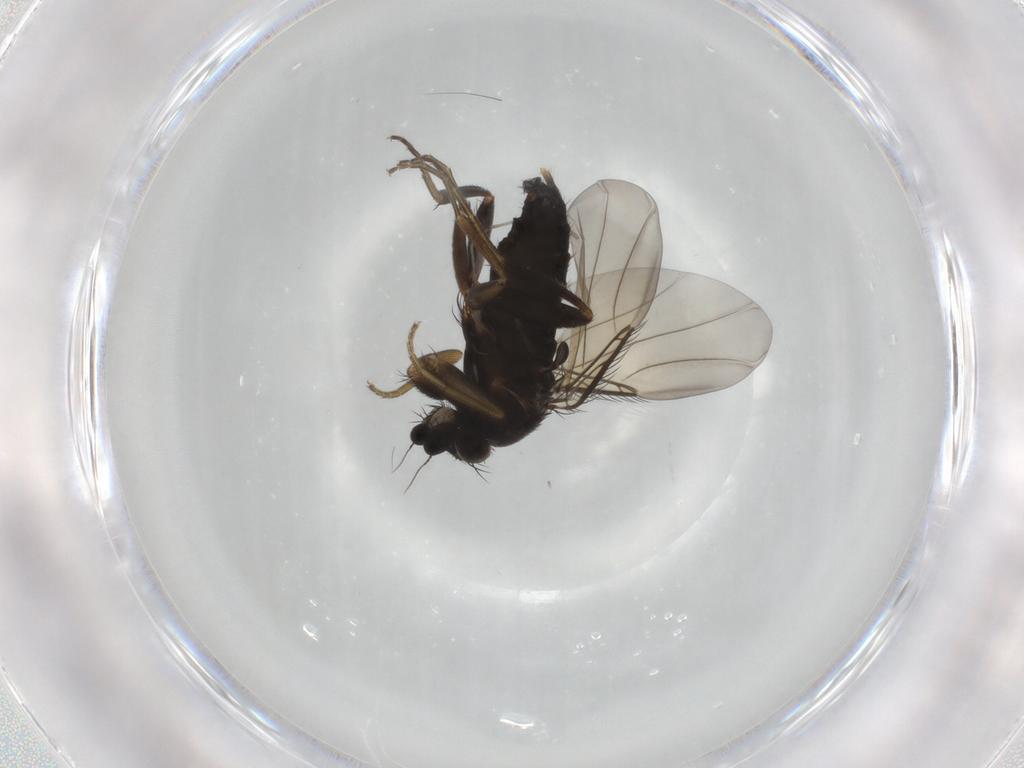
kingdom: Animalia
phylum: Arthropoda
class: Insecta
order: Diptera
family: Phoridae
